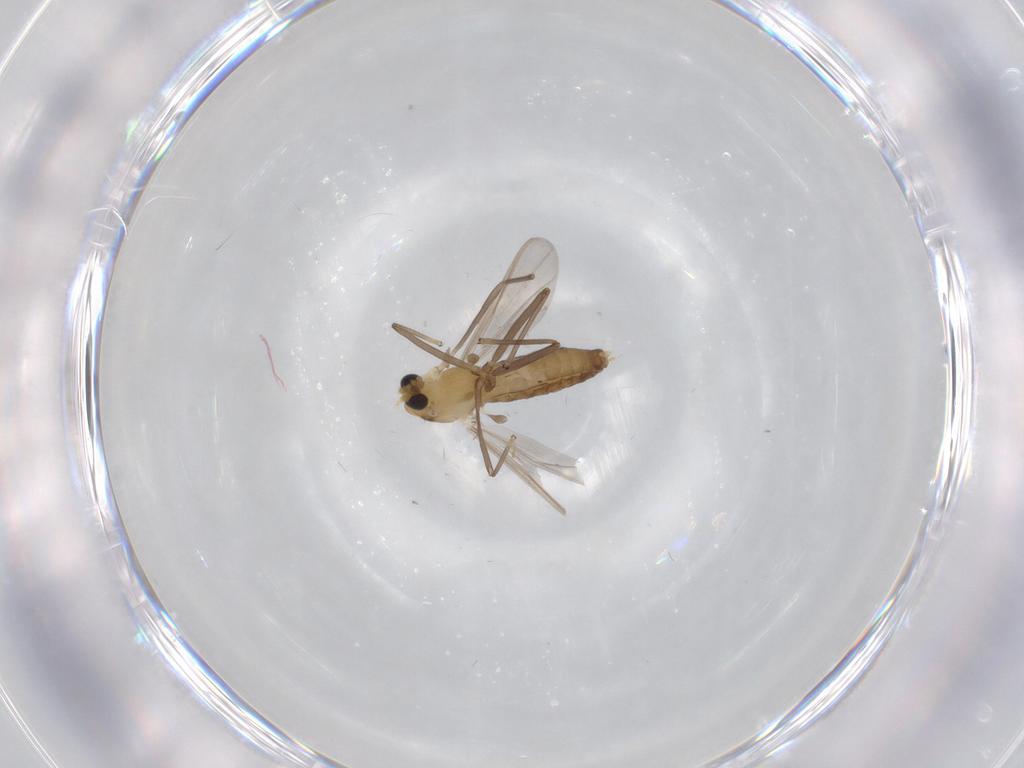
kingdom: Animalia
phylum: Arthropoda
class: Insecta
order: Diptera
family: Chironomidae
